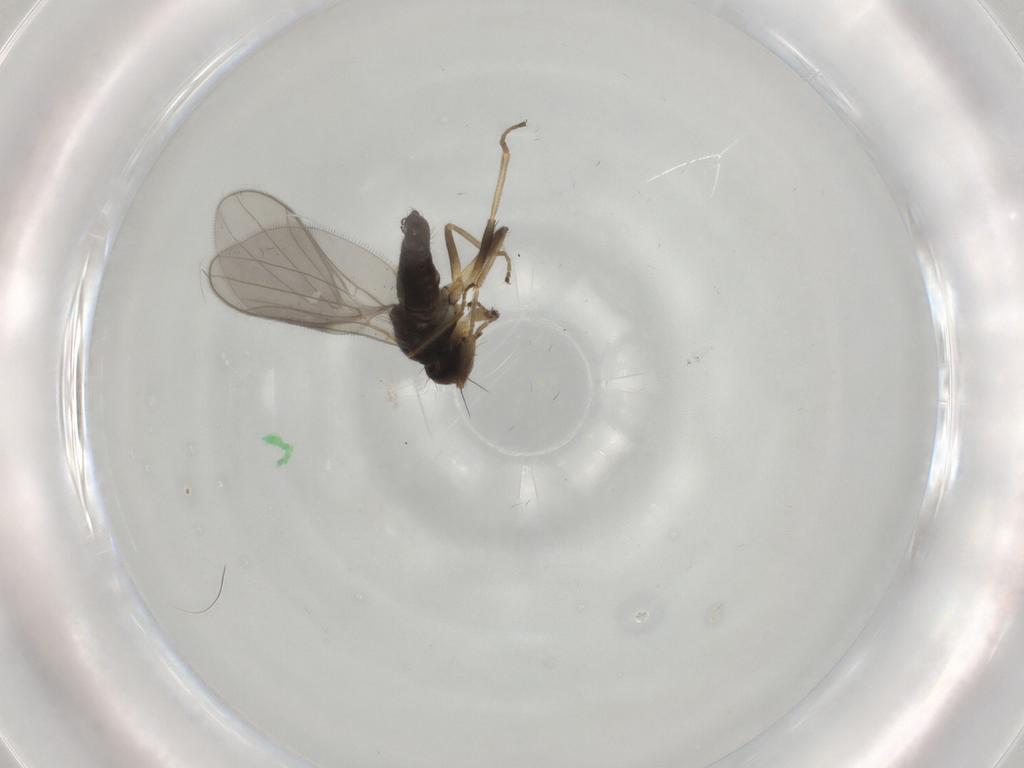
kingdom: Animalia
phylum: Arthropoda
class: Insecta
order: Diptera
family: Hybotidae
